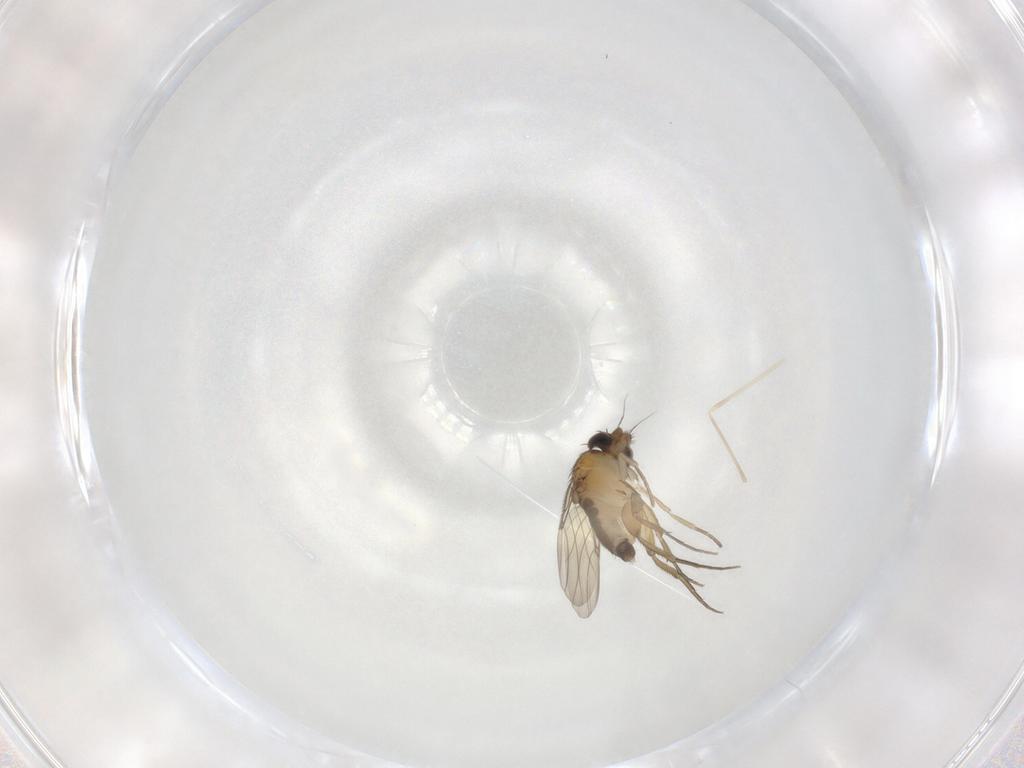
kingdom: Animalia
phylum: Arthropoda
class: Insecta
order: Diptera
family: Phoridae
